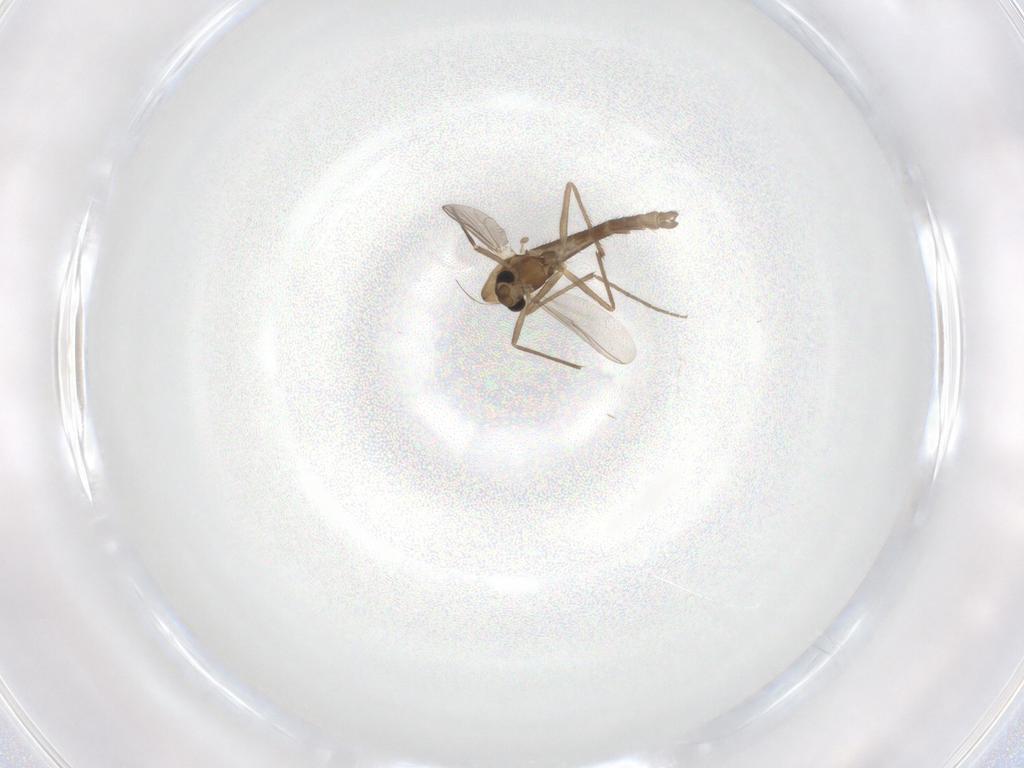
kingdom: Animalia
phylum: Arthropoda
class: Insecta
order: Diptera
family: Chironomidae
